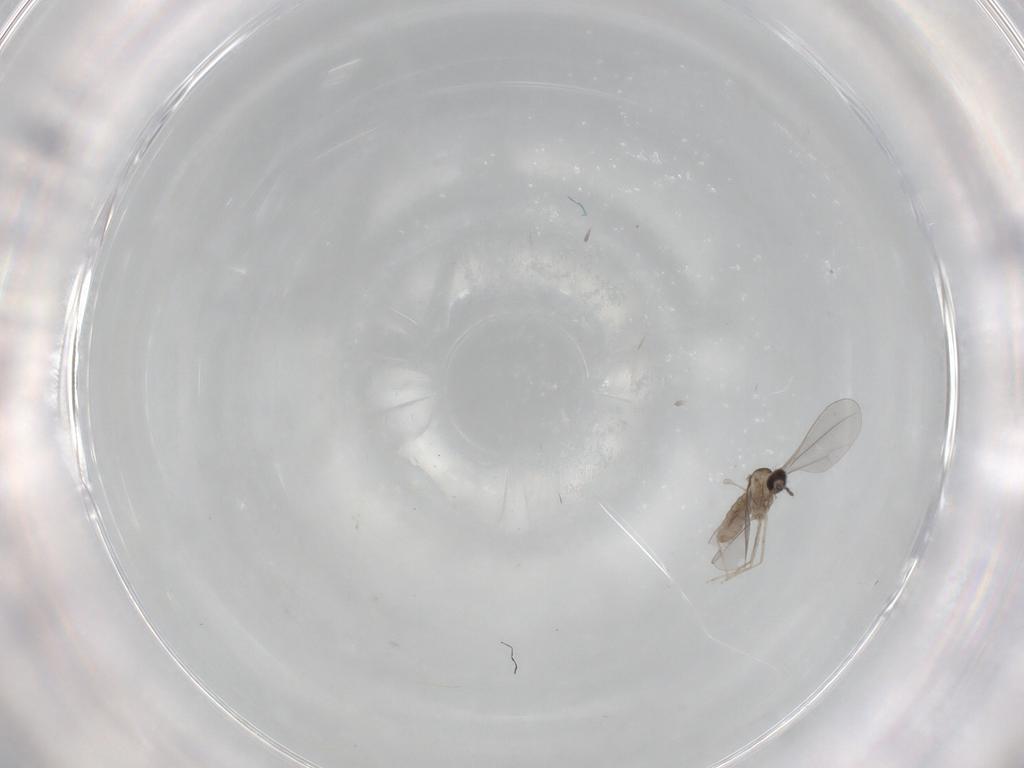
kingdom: Animalia
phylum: Arthropoda
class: Insecta
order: Diptera
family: Cecidomyiidae
